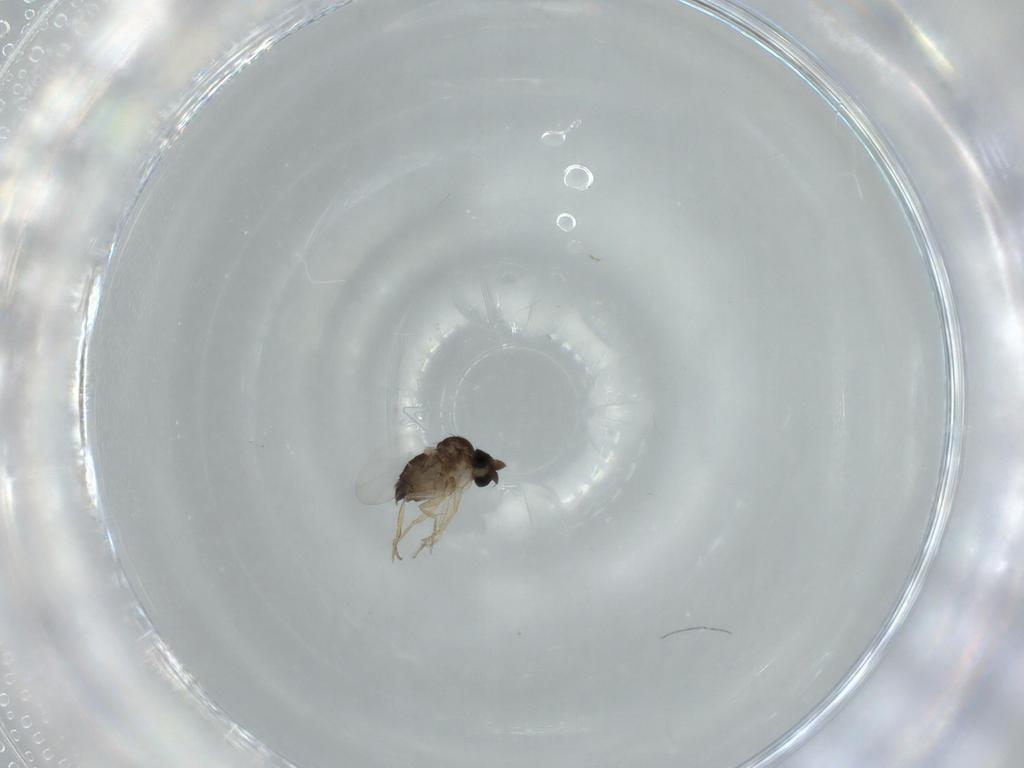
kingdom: Animalia
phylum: Arthropoda
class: Insecta
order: Diptera
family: Phoridae
